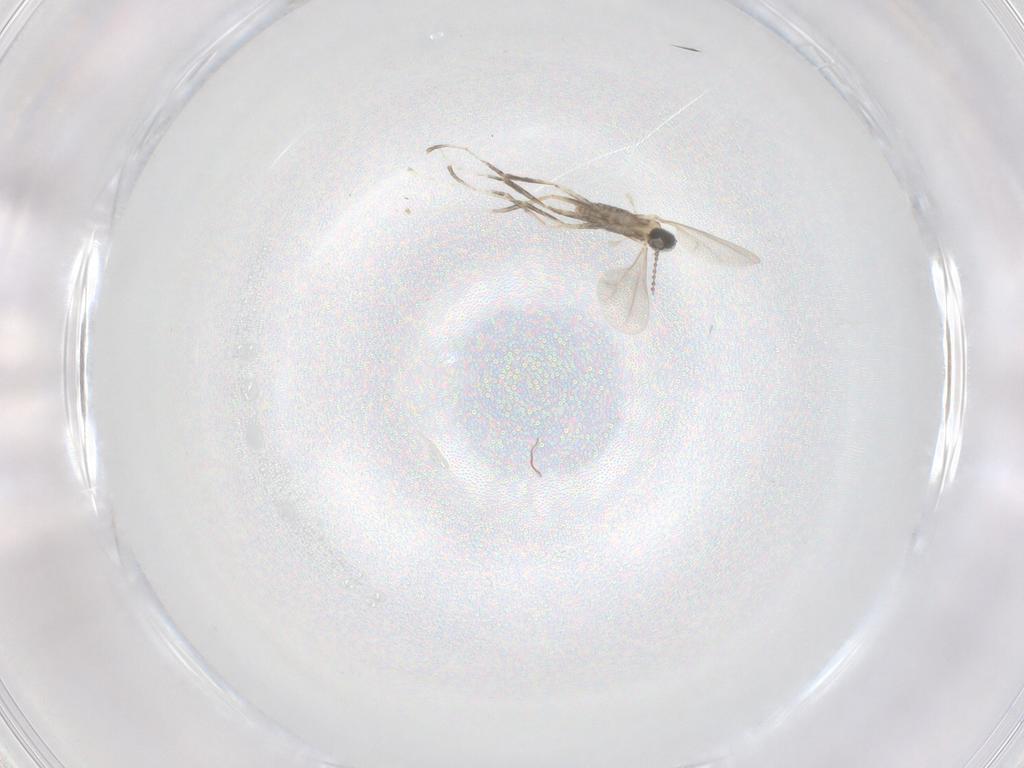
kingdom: Animalia
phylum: Arthropoda
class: Insecta
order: Diptera
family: Cecidomyiidae
